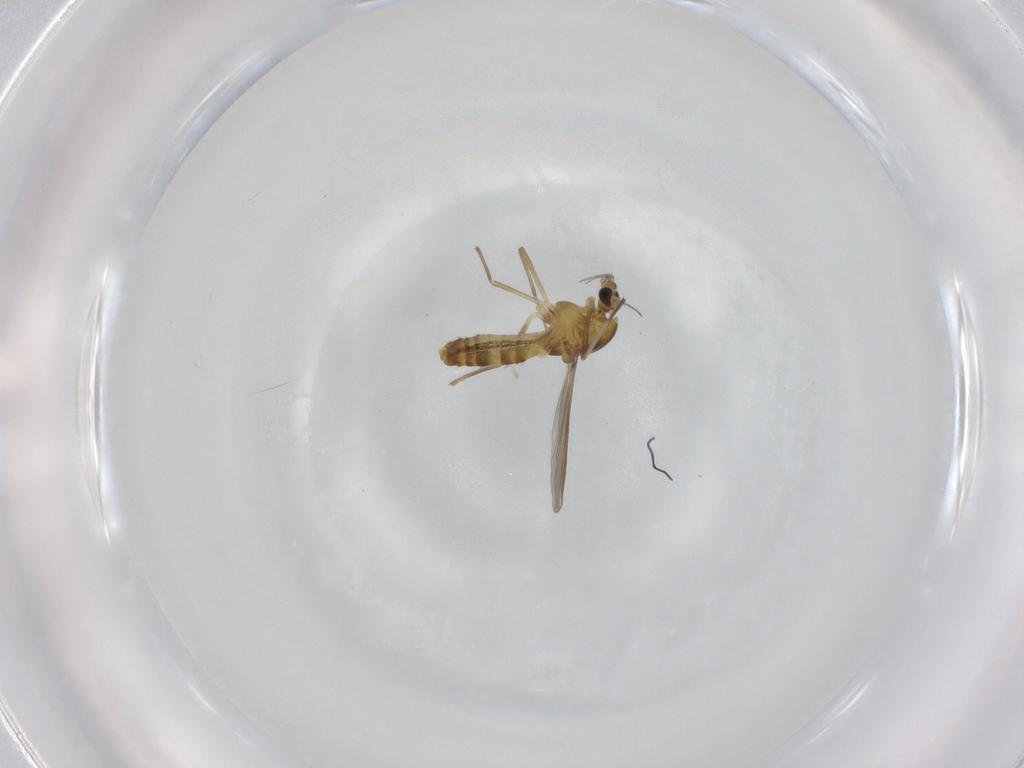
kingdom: Animalia
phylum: Arthropoda
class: Insecta
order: Diptera
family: Chironomidae
